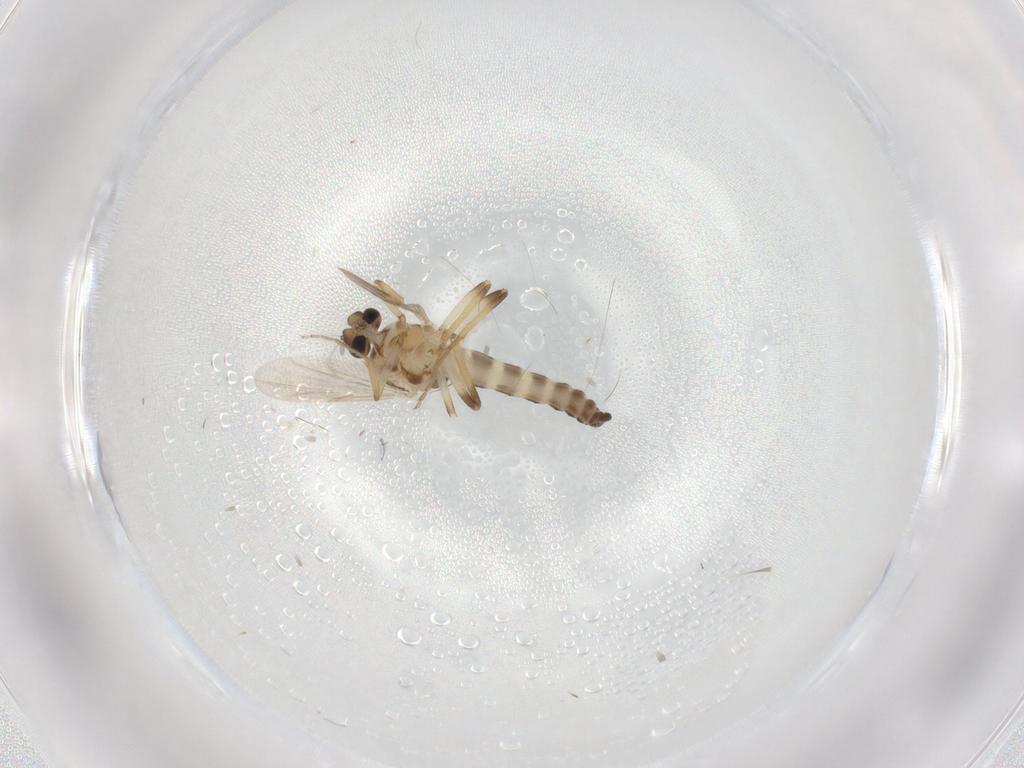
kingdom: Animalia
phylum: Arthropoda
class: Insecta
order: Diptera
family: Ceratopogonidae
